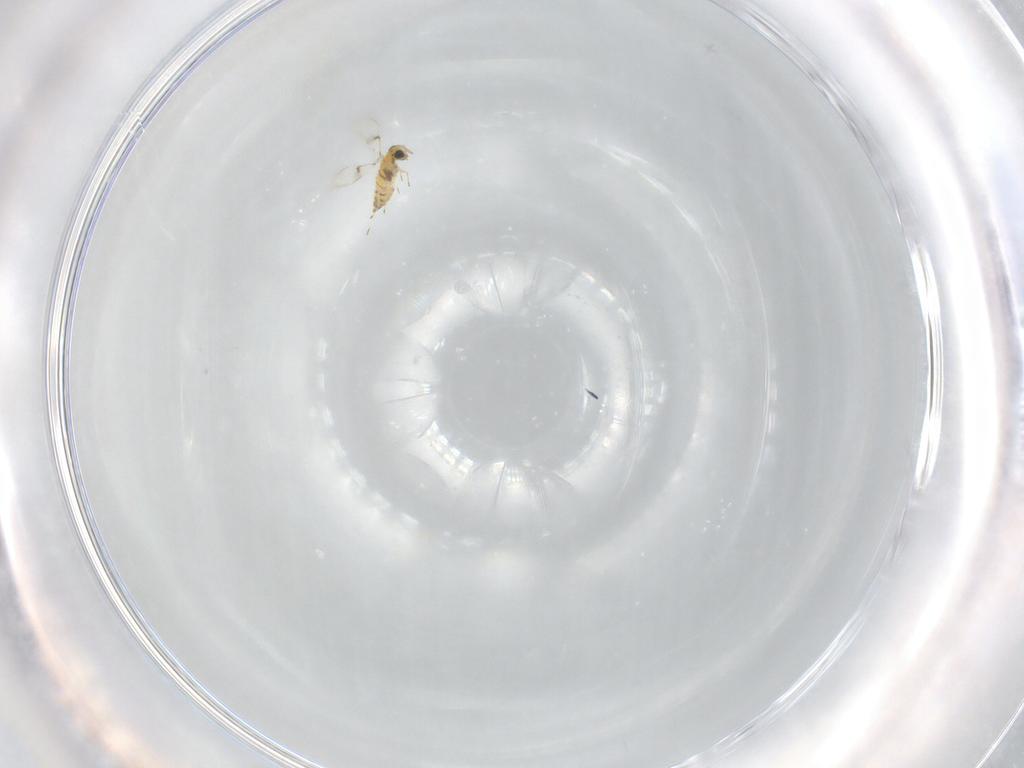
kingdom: Animalia
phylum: Arthropoda
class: Insecta
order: Hymenoptera
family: Trichogrammatidae
